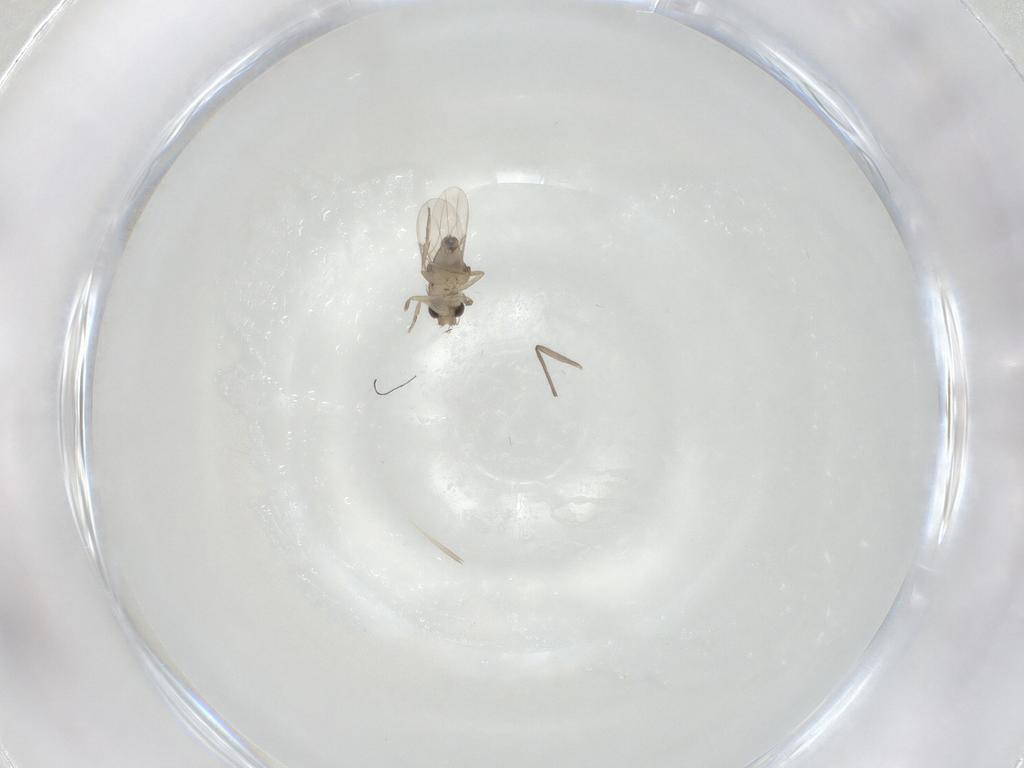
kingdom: Animalia
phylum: Arthropoda
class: Insecta
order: Diptera
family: Chironomidae
